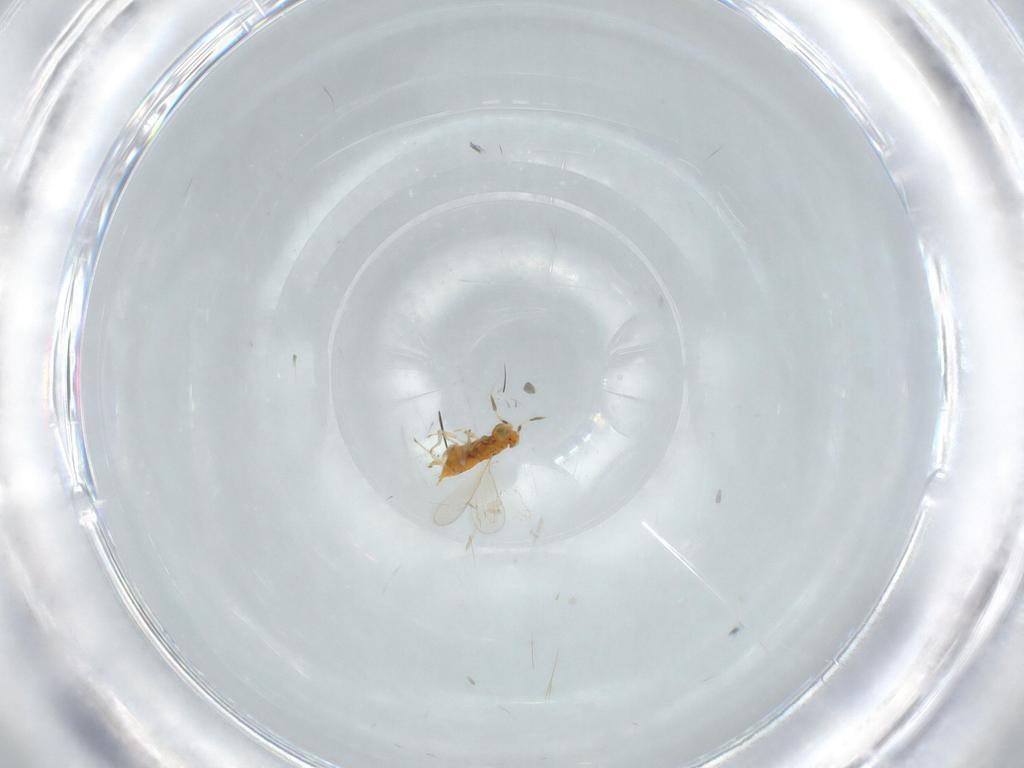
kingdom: Animalia
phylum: Arthropoda
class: Insecta
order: Hymenoptera
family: Aphelinidae
